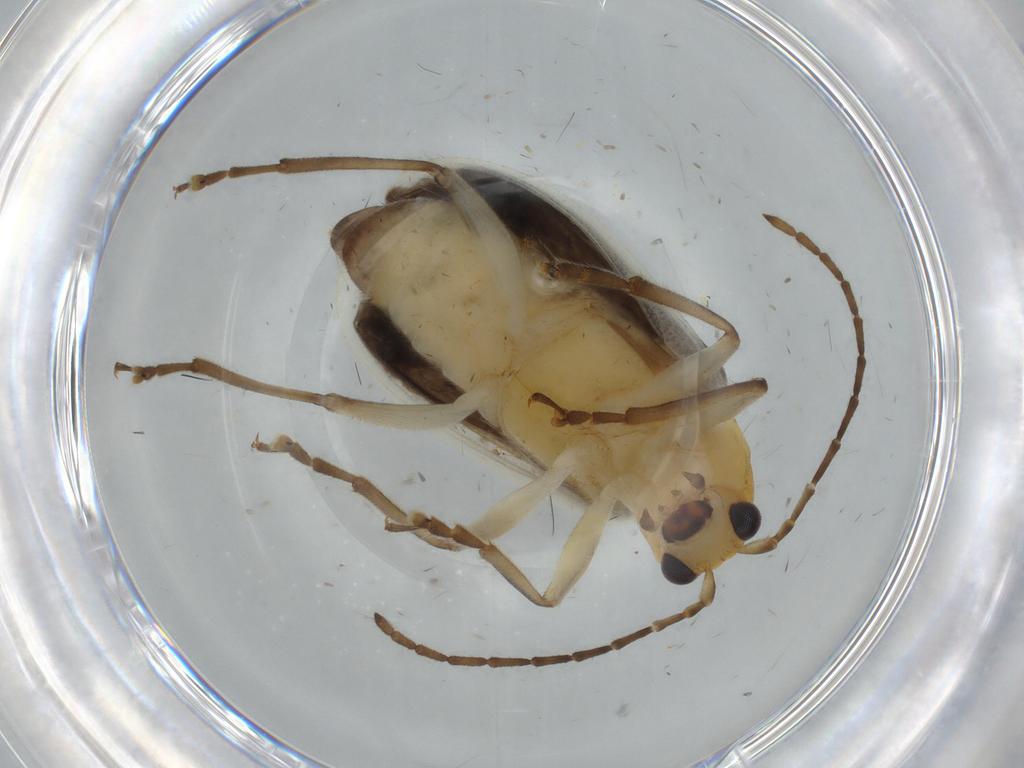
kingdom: Animalia
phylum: Arthropoda
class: Insecta
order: Coleoptera
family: Chrysomelidae
